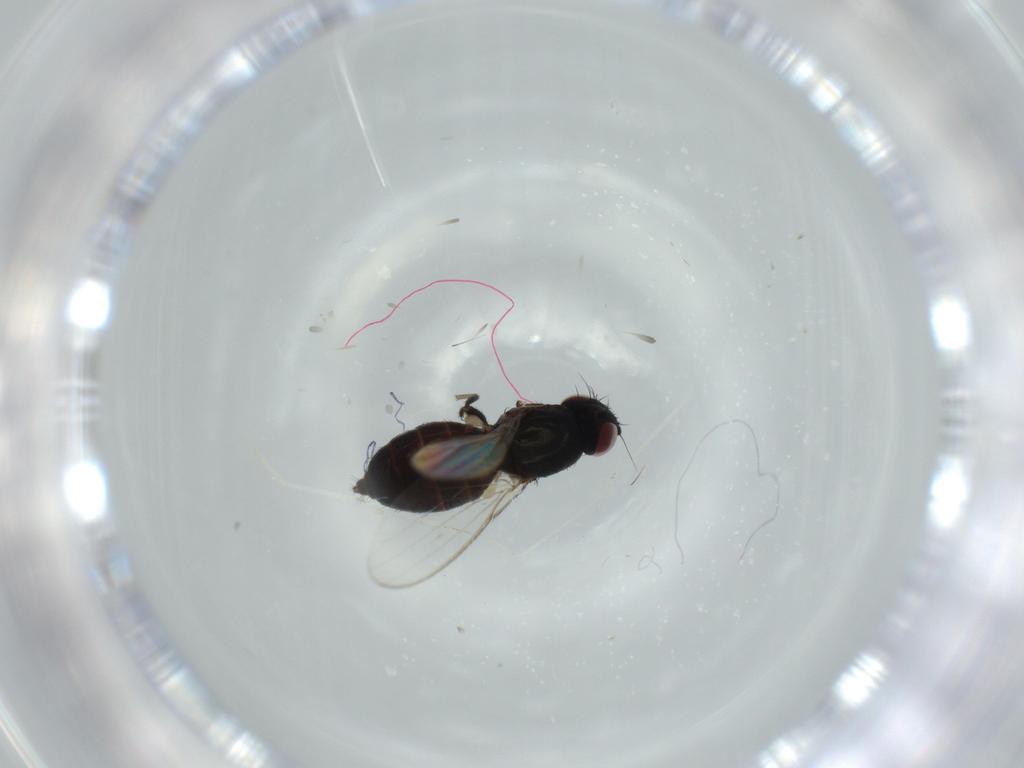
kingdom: Animalia
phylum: Arthropoda
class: Insecta
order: Diptera
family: Milichiidae
